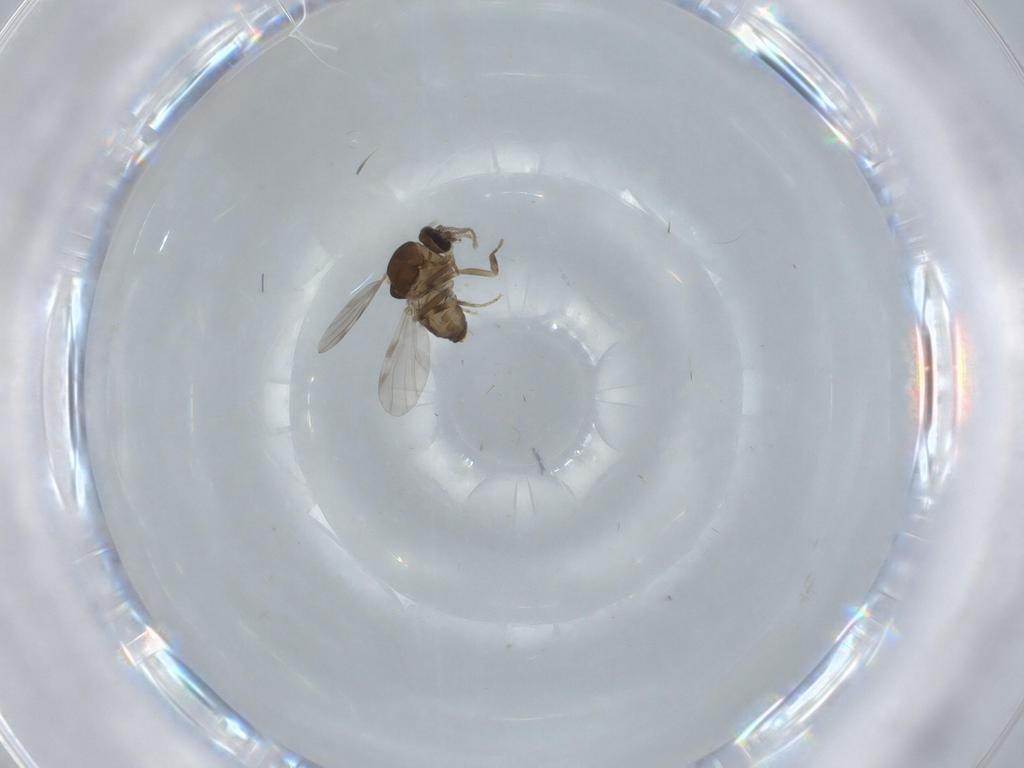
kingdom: Animalia
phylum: Arthropoda
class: Insecta
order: Diptera
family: Ceratopogonidae
